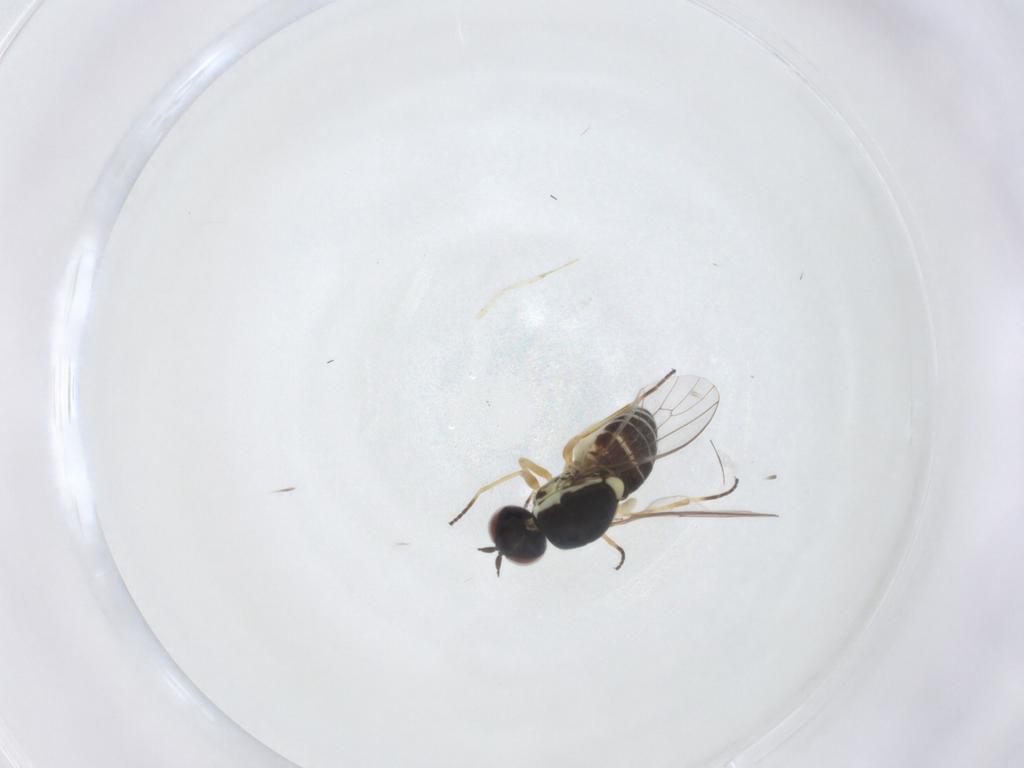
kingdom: Animalia
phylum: Arthropoda
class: Insecta
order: Diptera
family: Bombyliidae
